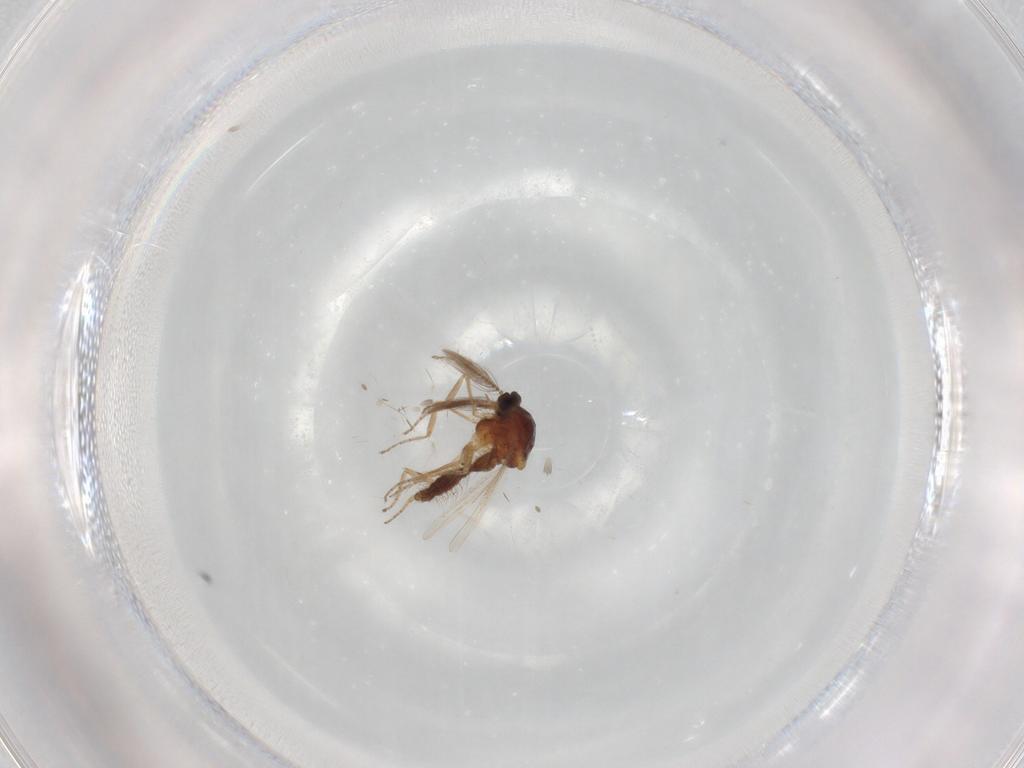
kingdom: Animalia
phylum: Arthropoda
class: Insecta
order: Diptera
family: Ceratopogonidae
